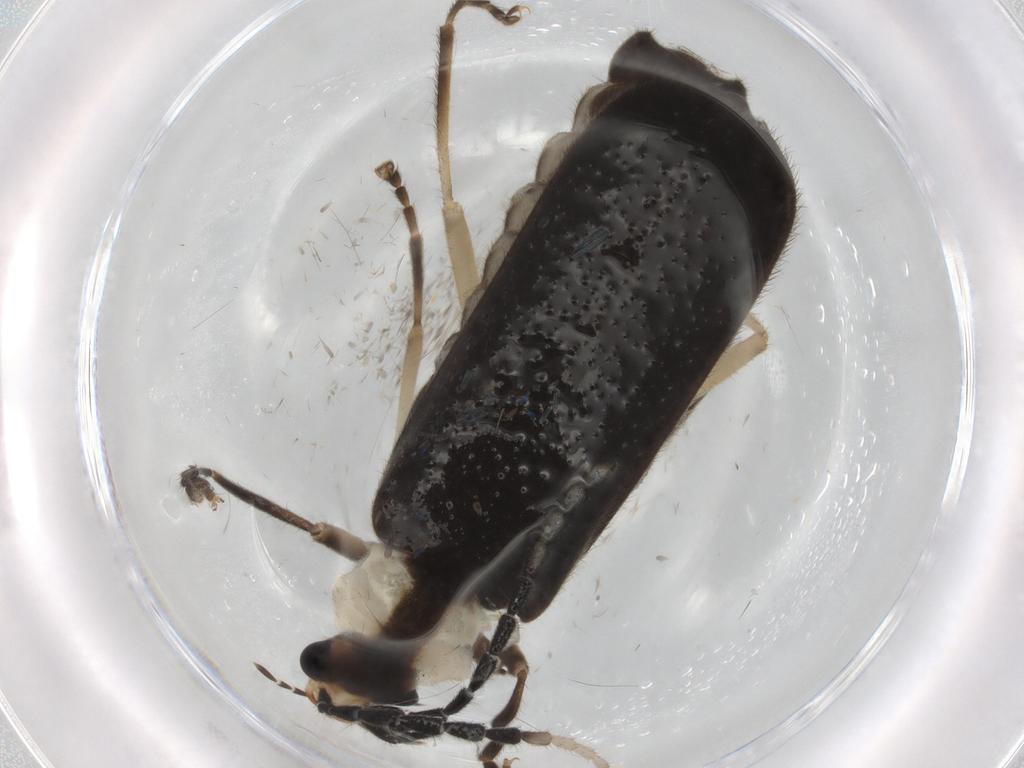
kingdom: Animalia
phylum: Arthropoda
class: Insecta
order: Coleoptera
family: Cantharidae
